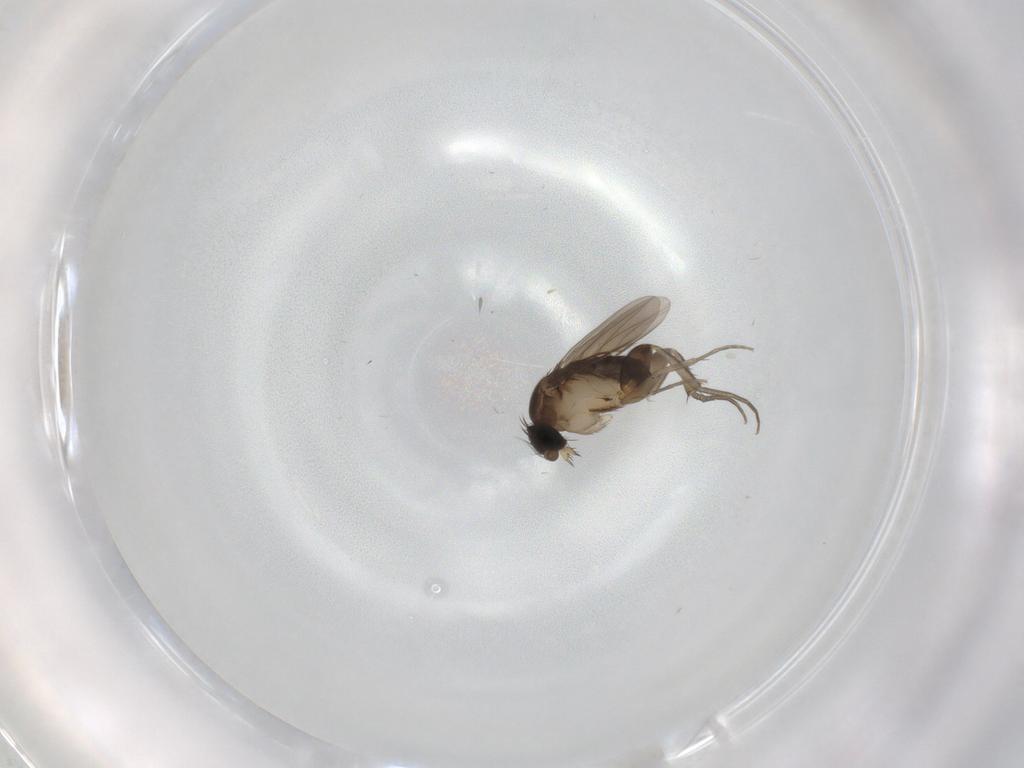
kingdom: Animalia
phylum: Arthropoda
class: Insecta
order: Diptera
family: Phoridae
